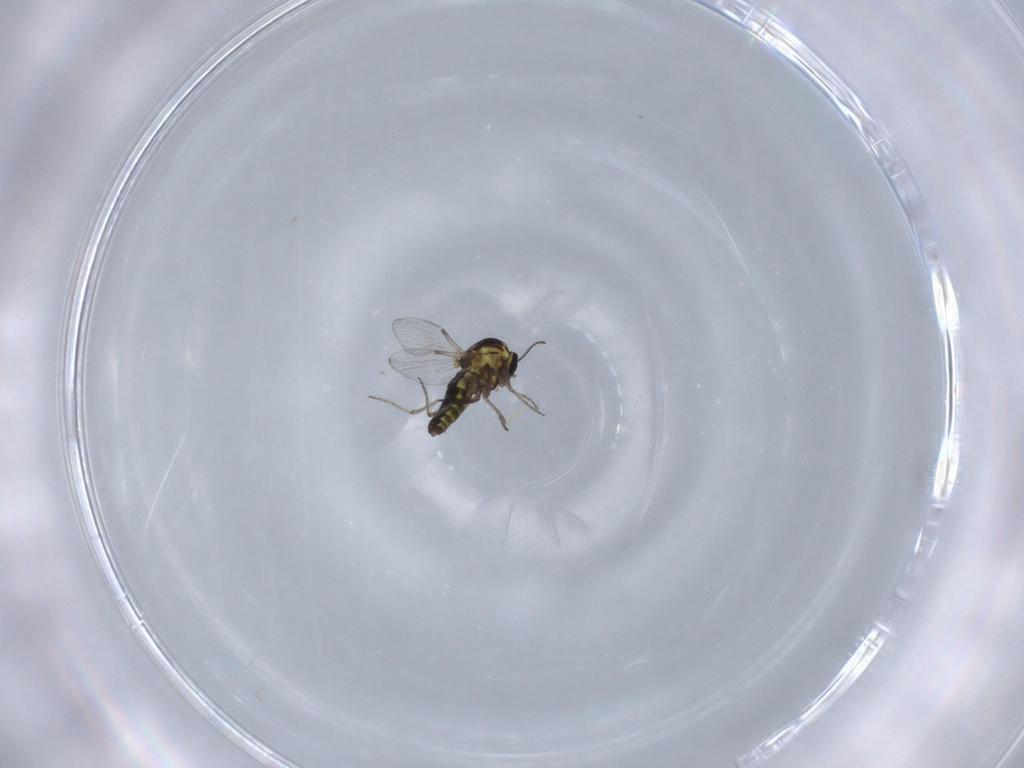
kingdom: Animalia
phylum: Arthropoda
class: Insecta
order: Diptera
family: Ceratopogonidae
